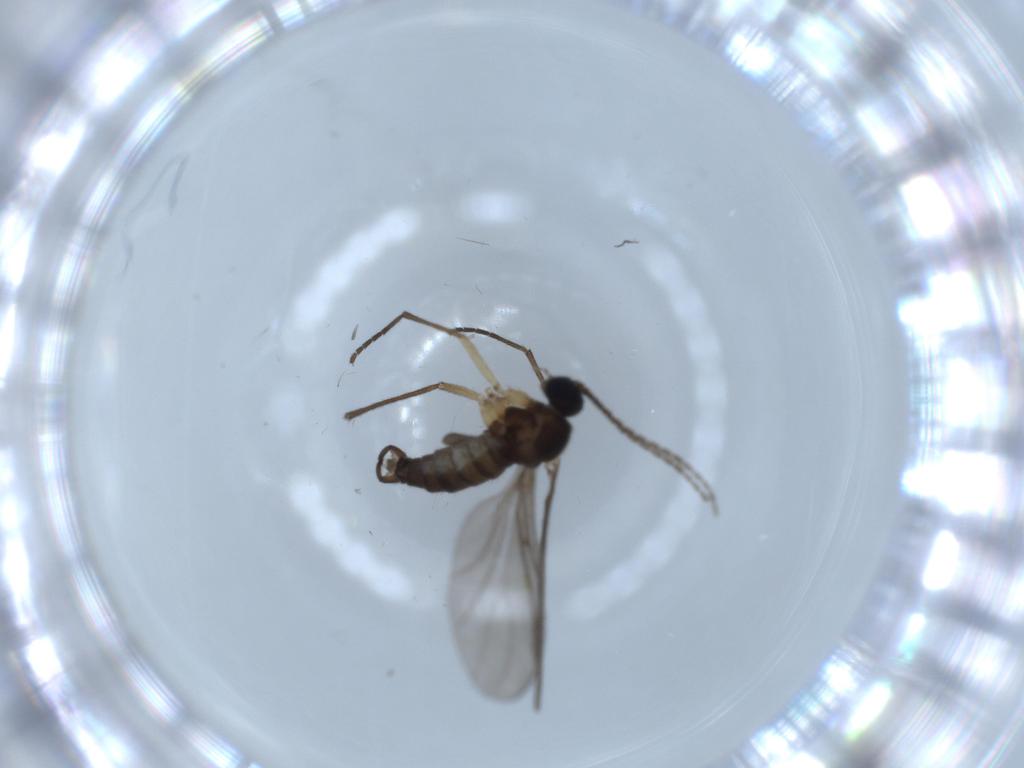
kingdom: Animalia
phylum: Arthropoda
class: Insecta
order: Diptera
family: Sciaridae
